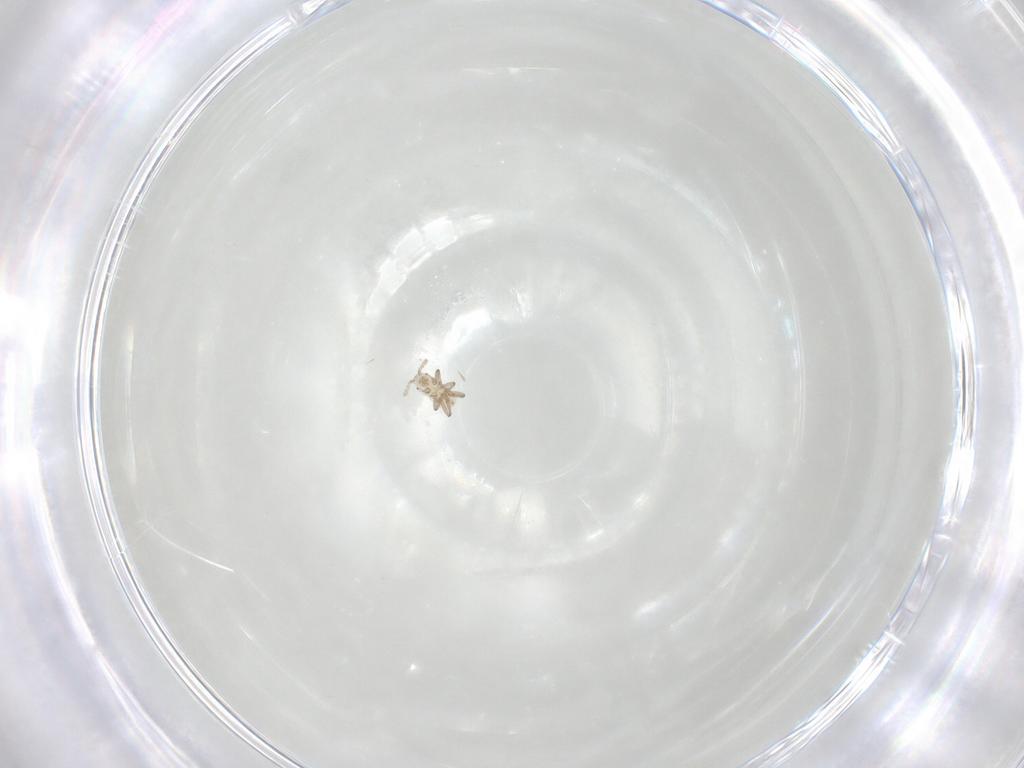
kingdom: Animalia
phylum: Arthropoda
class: Insecta
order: Hemiptera
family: Aphididae
